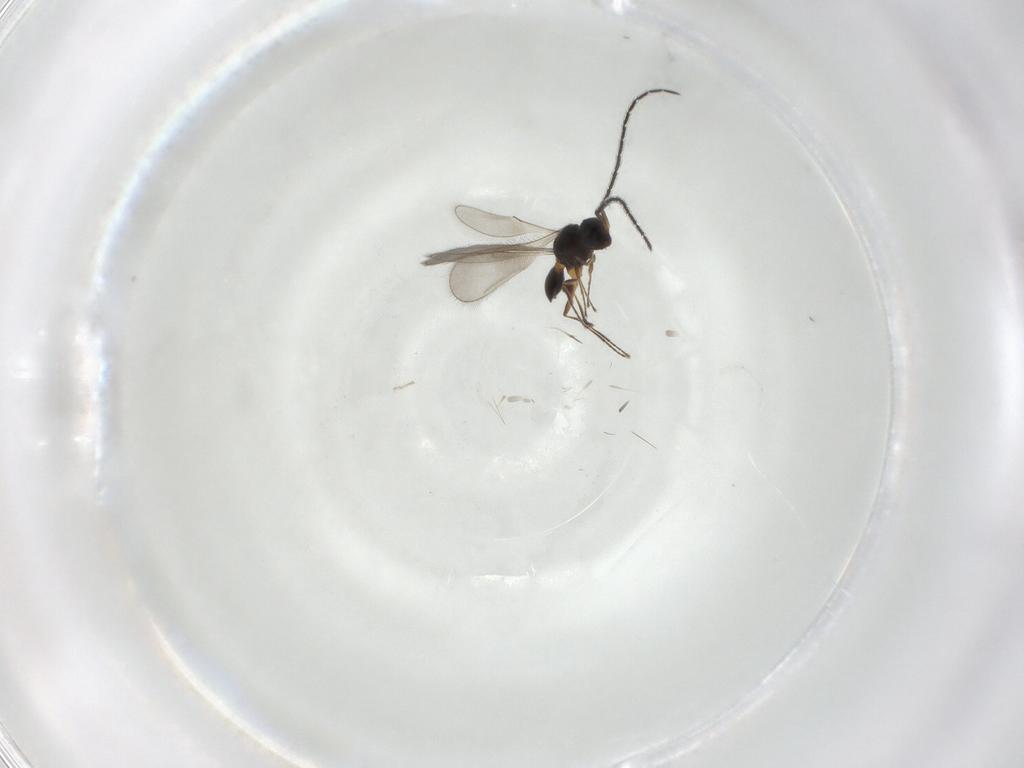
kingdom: Animalia
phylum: Arthropoda
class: Insecta
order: Hymenoptera
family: Scelionidae
